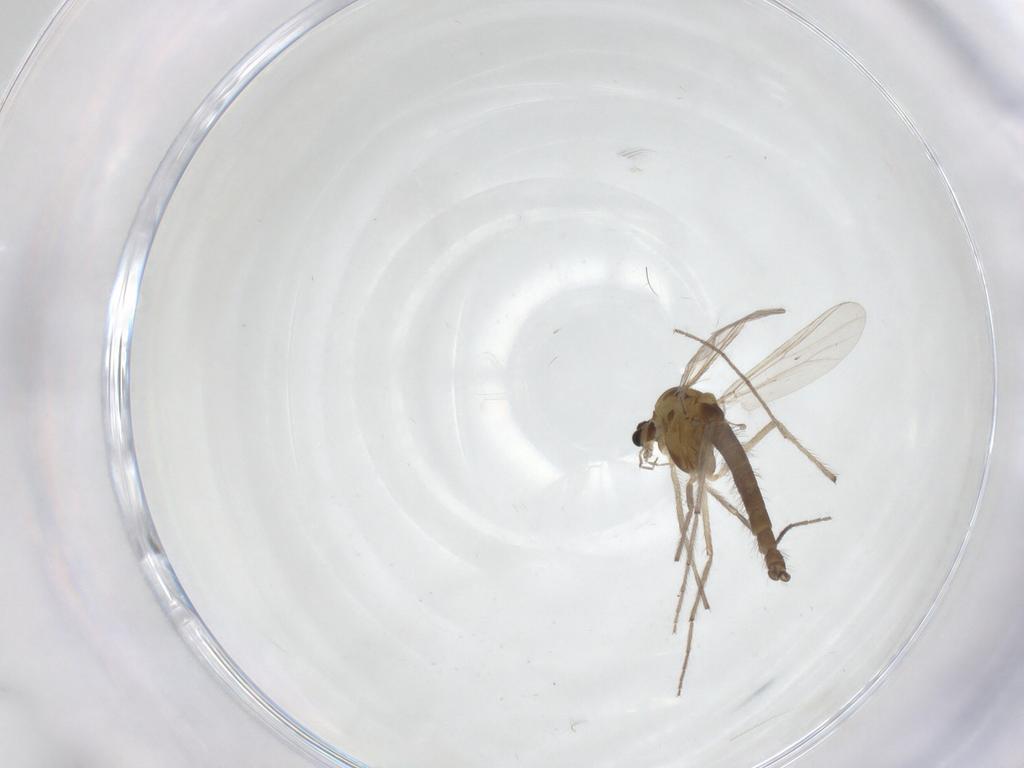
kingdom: Animalia
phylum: Arthropoda
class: Insecta
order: Diptera
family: Chironomidae
